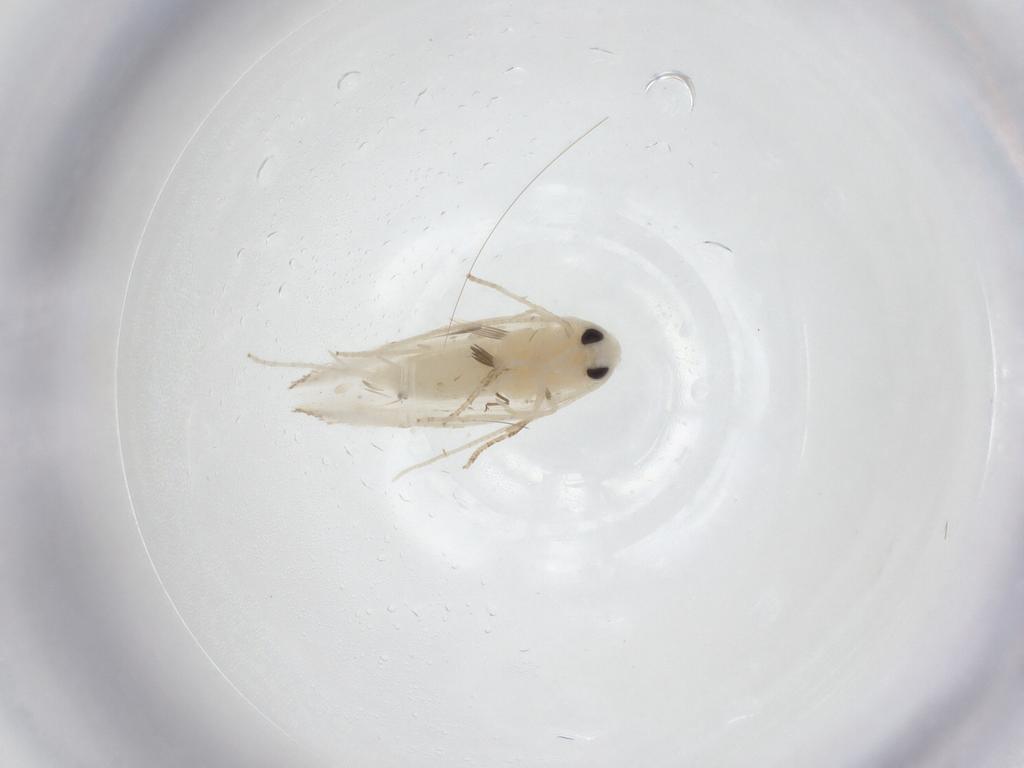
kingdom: Animalia
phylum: Arthropoda
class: Insecta
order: Lepidoptera
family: Lyonetiidae
